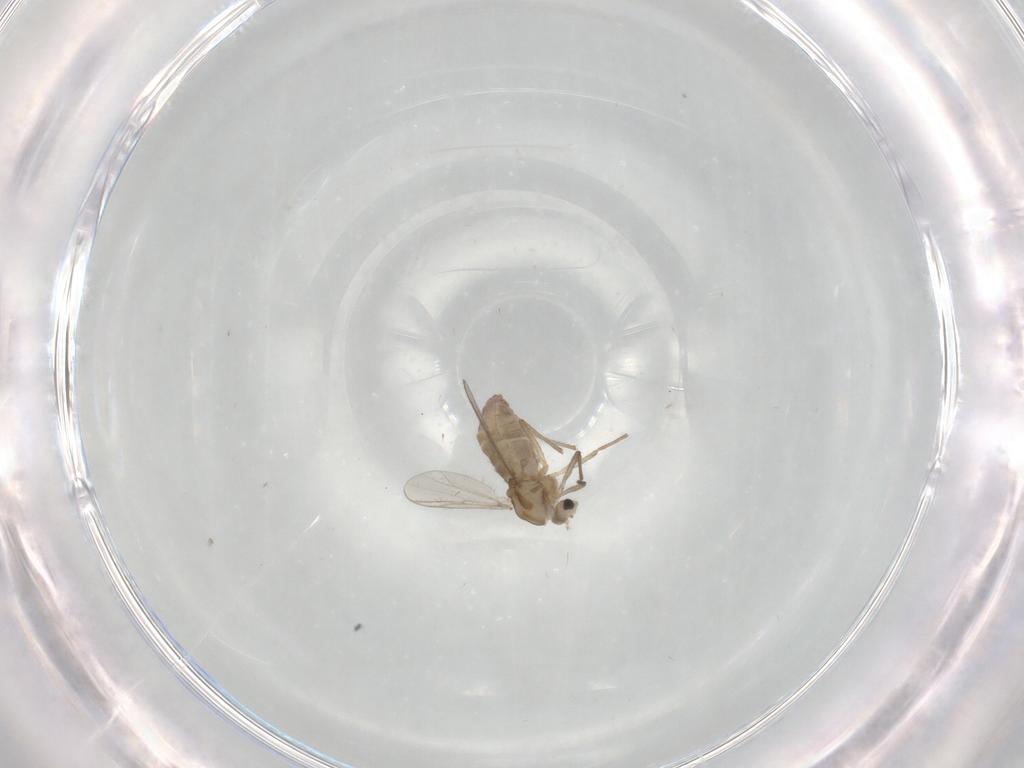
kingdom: Animalia
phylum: Arthropoda
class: Insecta
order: Diptera
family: Chironomidae
